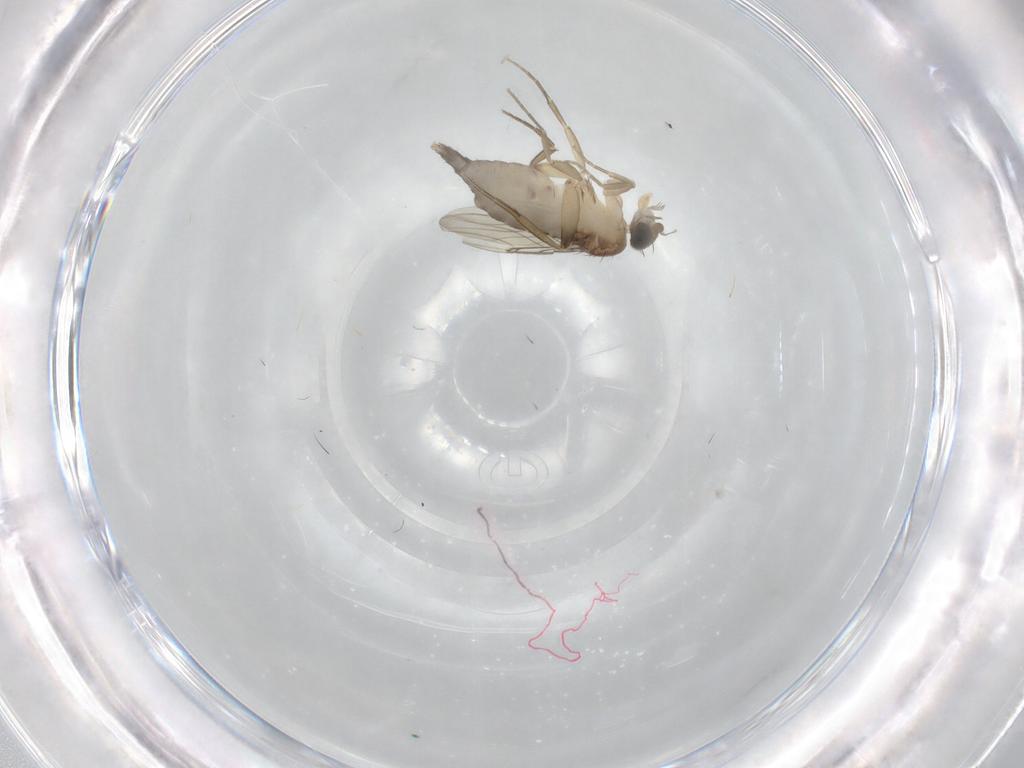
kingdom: Animalia
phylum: Arthropoda
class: Insecta
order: Diptera
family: Phoridae
